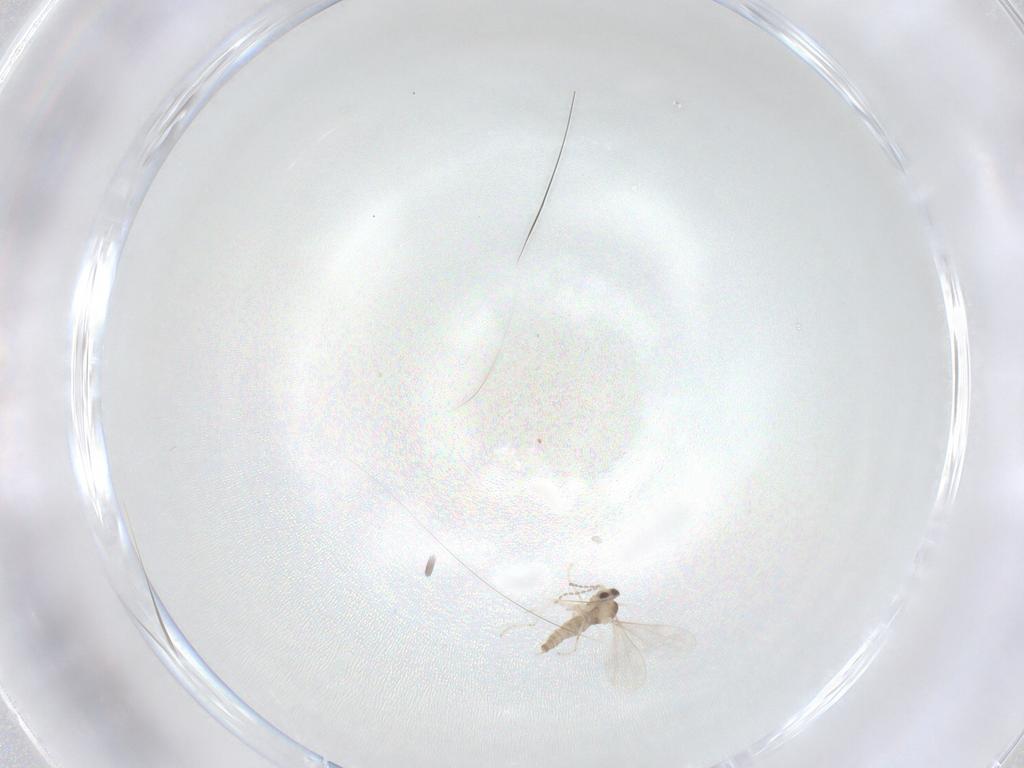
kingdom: Animalia
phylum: Arthropoda
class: Insecta
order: Diptera
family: Cecidomyiidae
